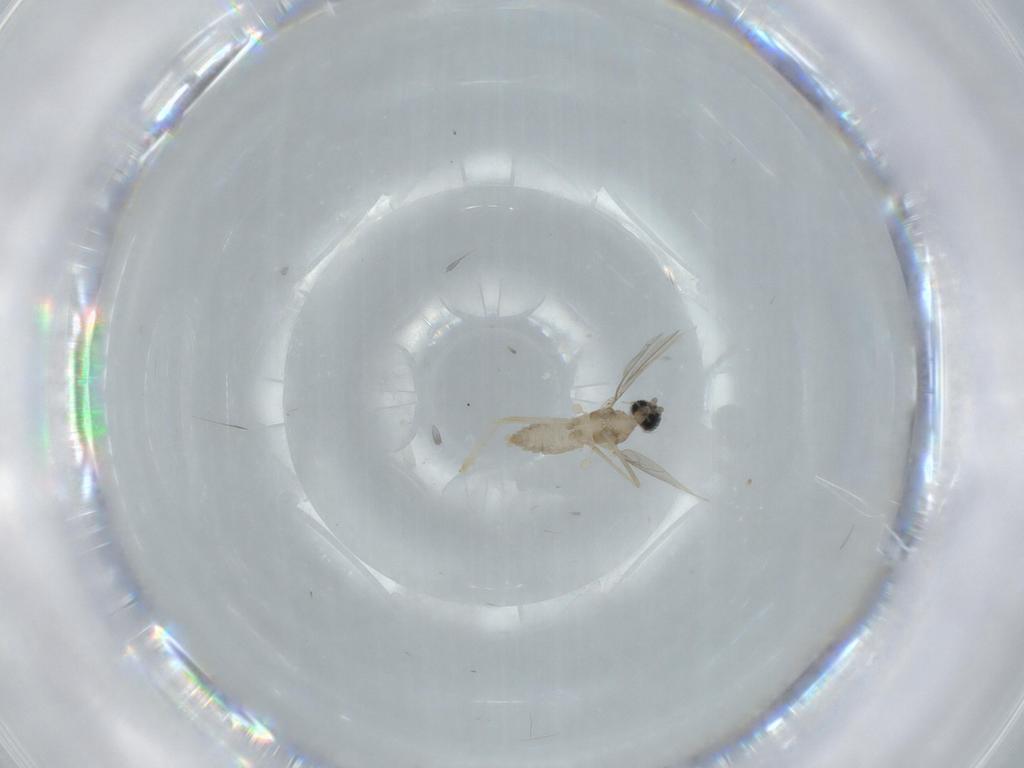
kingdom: Animalia
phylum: Arthropoda
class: Insecta
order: Diptera
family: Cecidomyiidae
